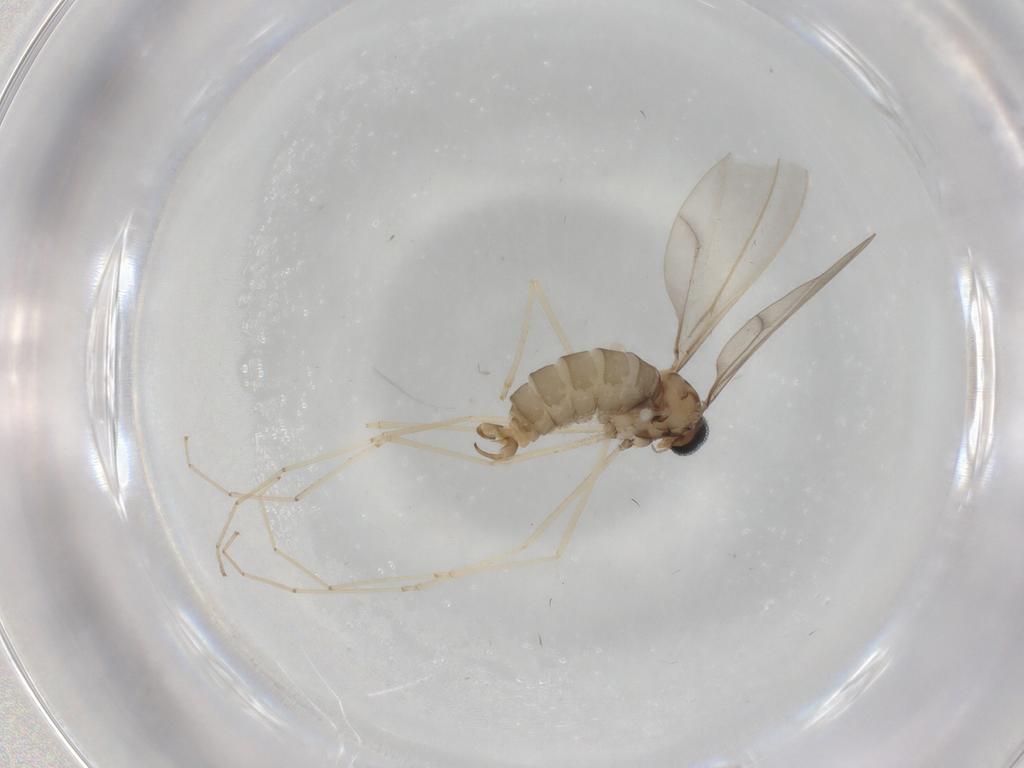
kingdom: Animalia
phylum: Arthropoda
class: Insecta
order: Diptera
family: Cecidomyiidae
